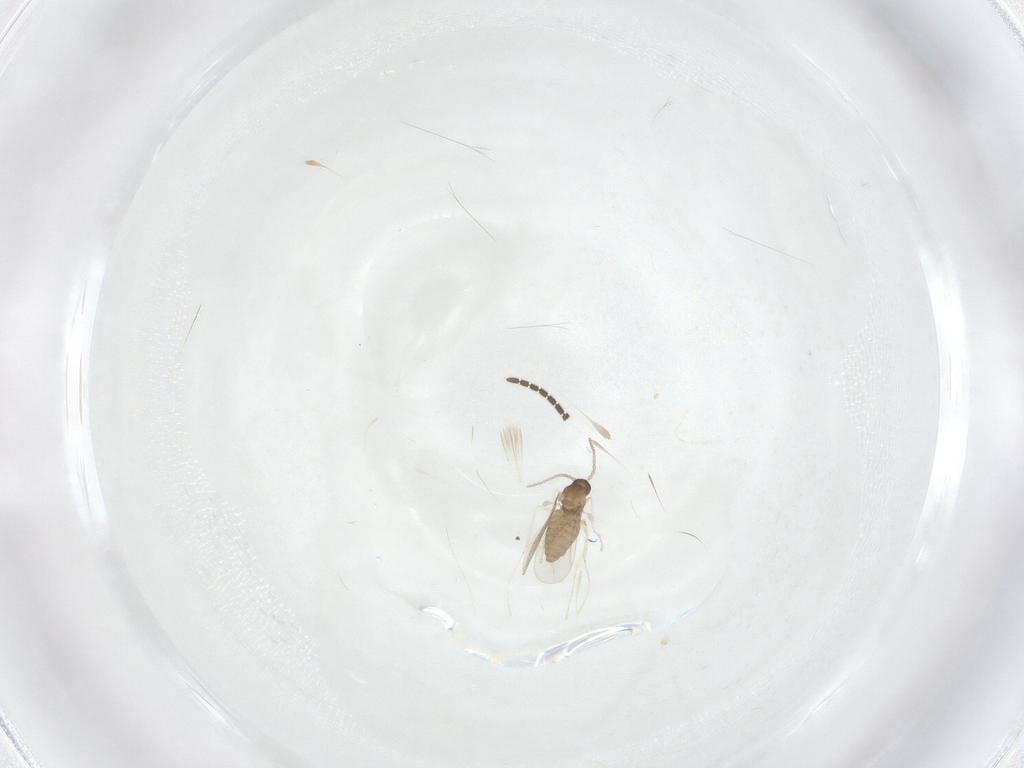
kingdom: Animalia
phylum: Arthropoda
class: Insecta
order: Diptera
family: Cecidomyiidae
